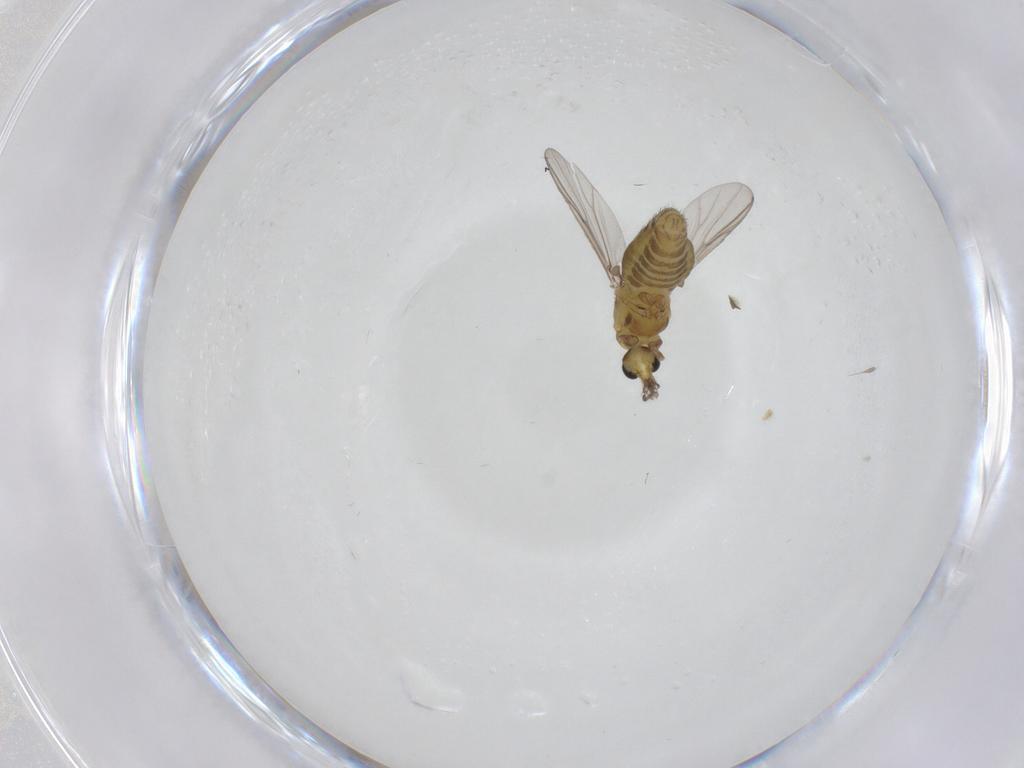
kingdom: Animalia
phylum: Arthropoda
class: Insecta
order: Diptera
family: Chironomidae
